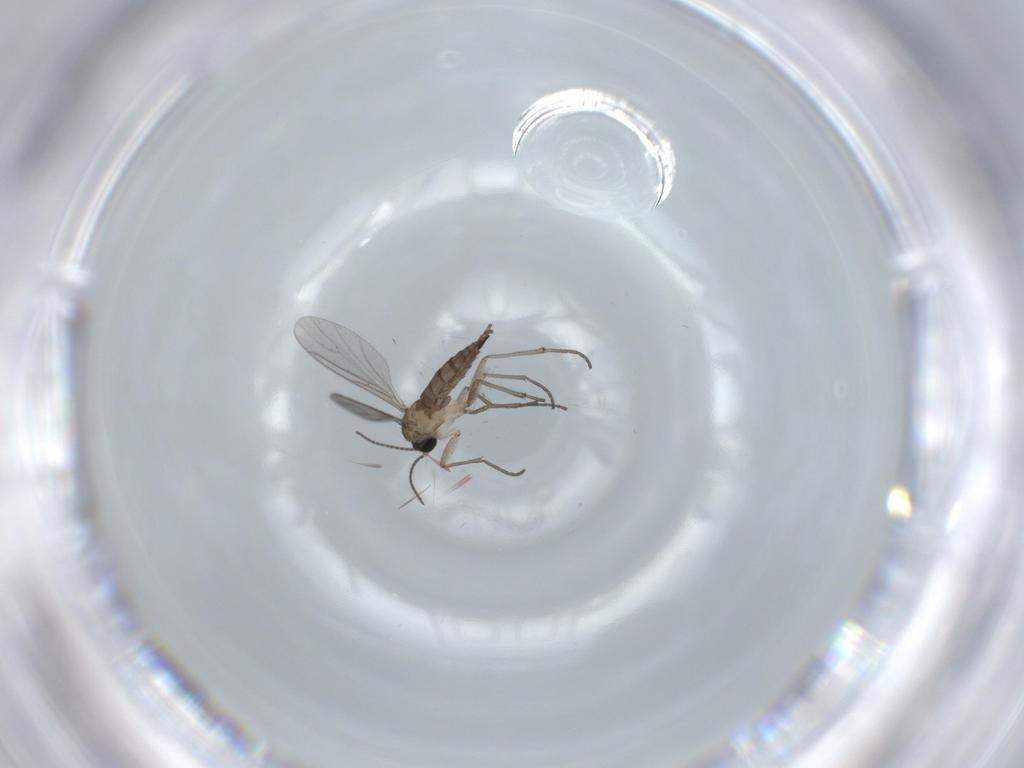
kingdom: Animalia
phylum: Arthropoda
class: Insecta
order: Diptera
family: Sciaridae
